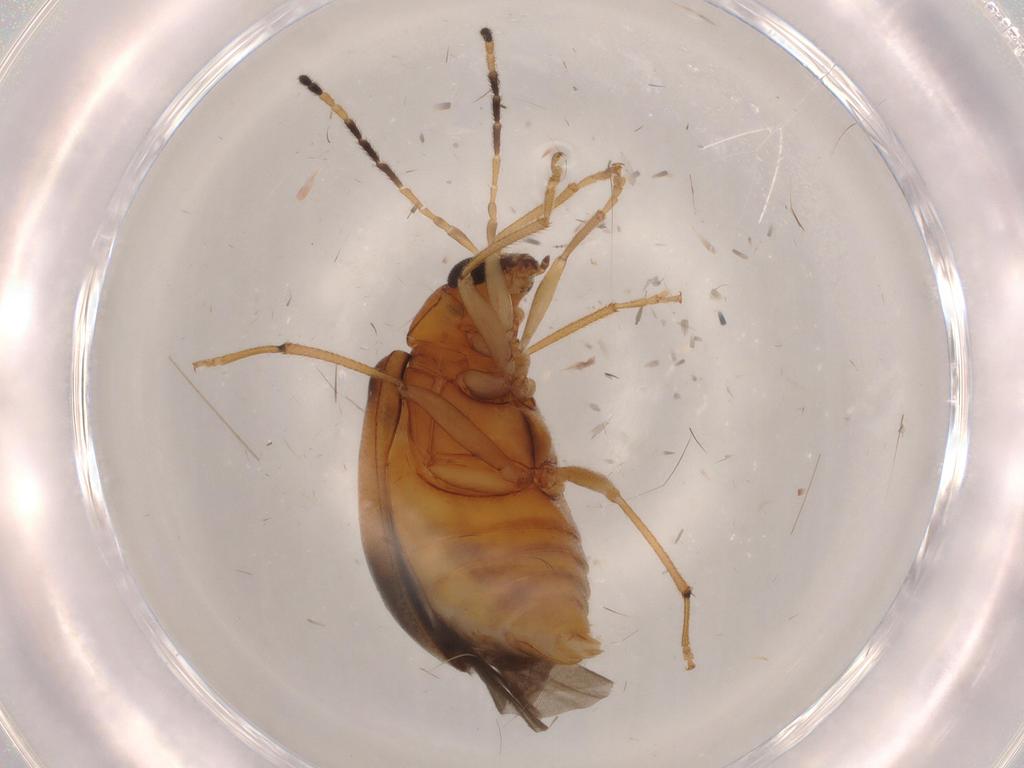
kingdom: Animalia
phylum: Arthropoda
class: Insecta
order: Coleoptera
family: Chrysomelidae
